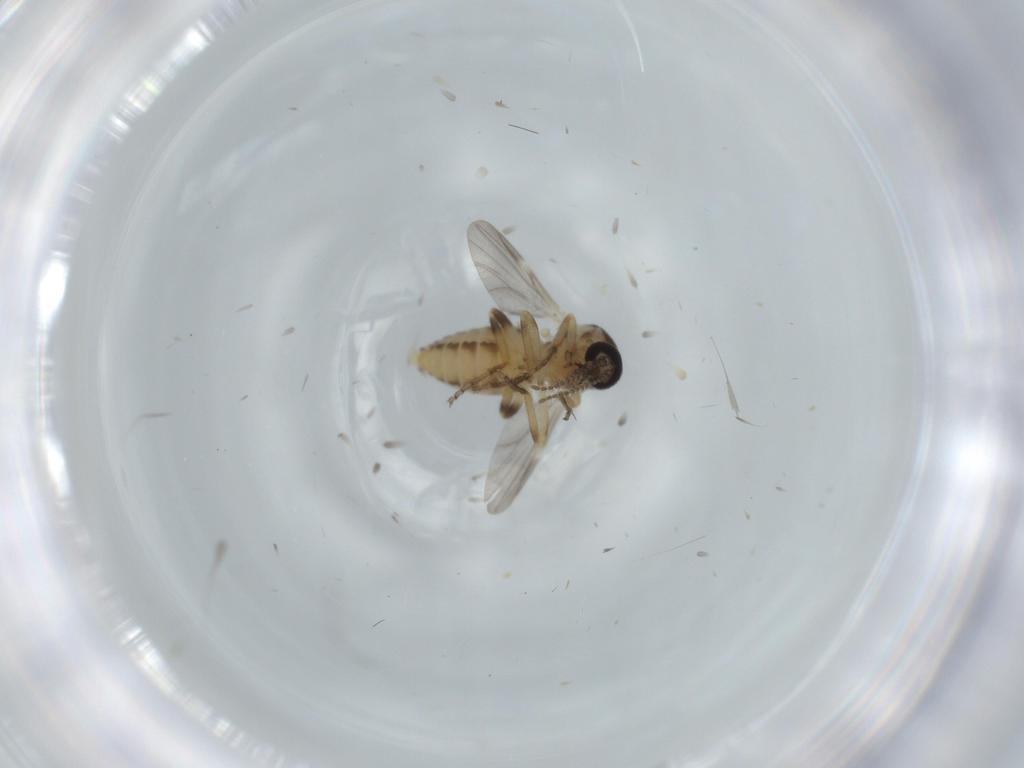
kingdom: Animalia
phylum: Arthropoda
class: Insecta
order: Diptera
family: Ceratopogonidae
